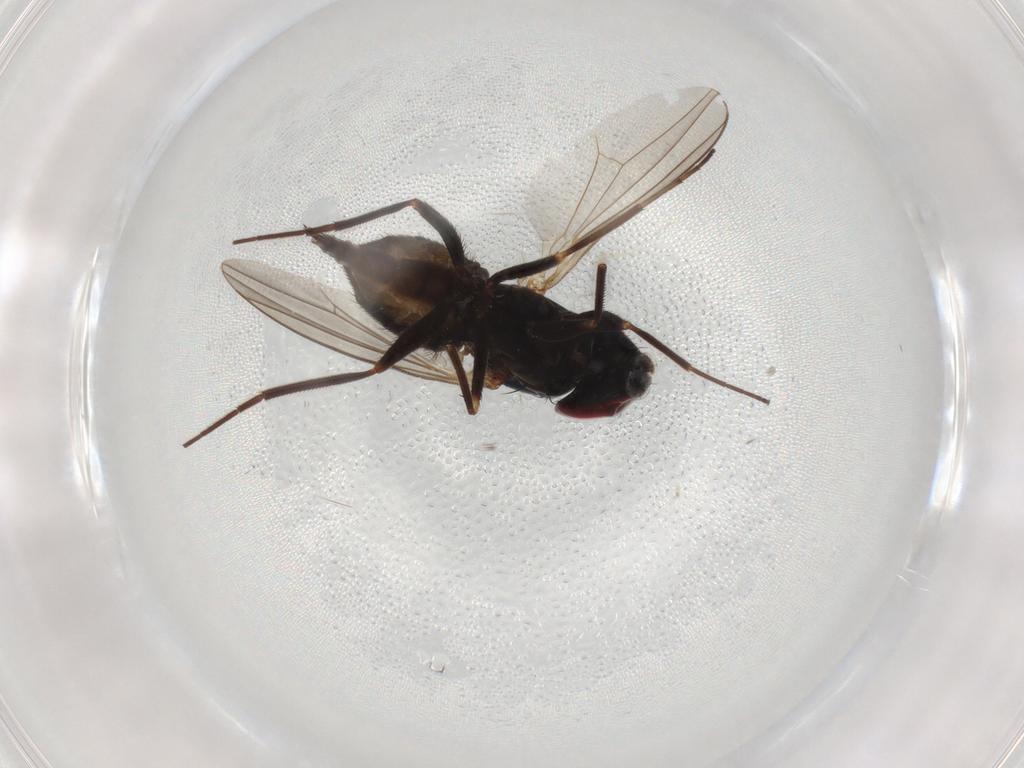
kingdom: Animalia
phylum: Arthropoda
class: Insecta
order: Diptera
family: Dolichopodidae
